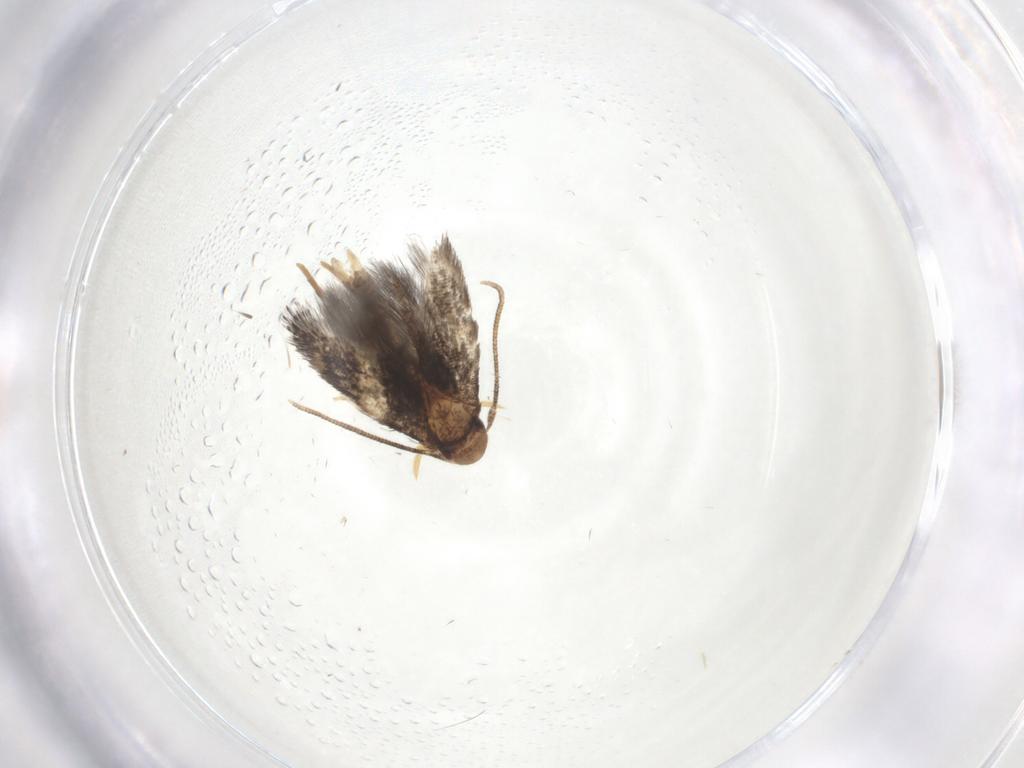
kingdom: Animalia
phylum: Arthropoda
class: Insecta
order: Lepidoptera
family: Gelechiidae
